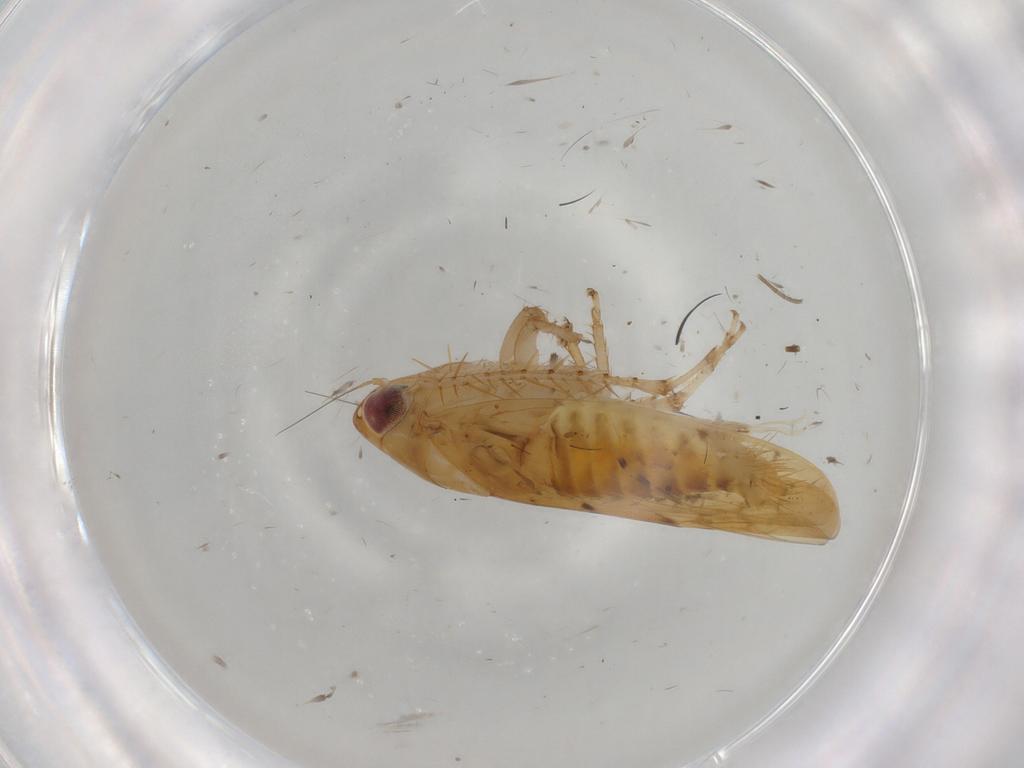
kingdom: Animalia
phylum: Arthropoda
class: Insecta
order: Hemiptera
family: Cicadellidae
